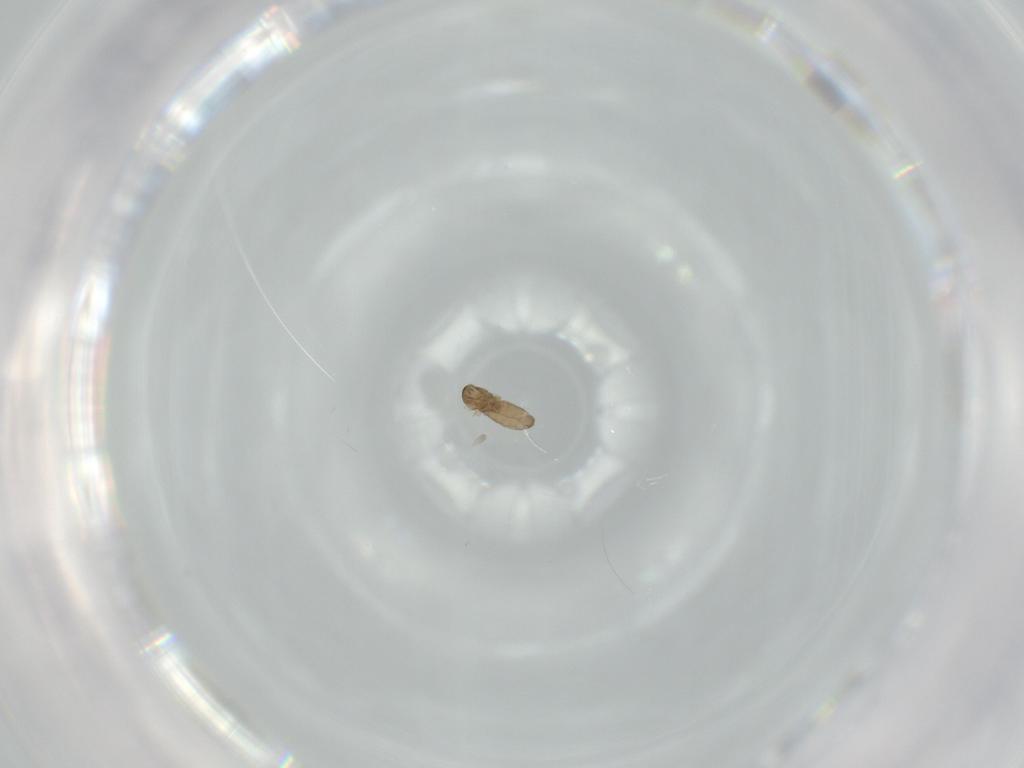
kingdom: Animalia
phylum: Arthropoda
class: Insecta
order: Diptera
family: Cecidomyiidae
